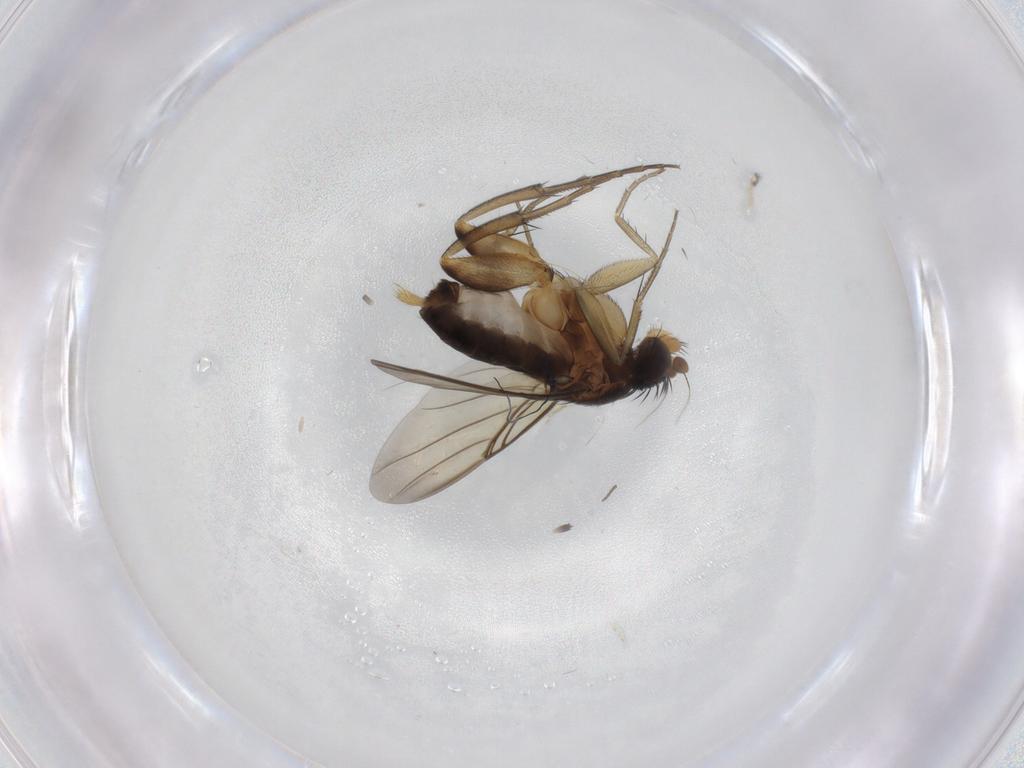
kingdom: Animalia
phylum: Arthropoda
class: Insecta
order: Diptera
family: Phoridae
